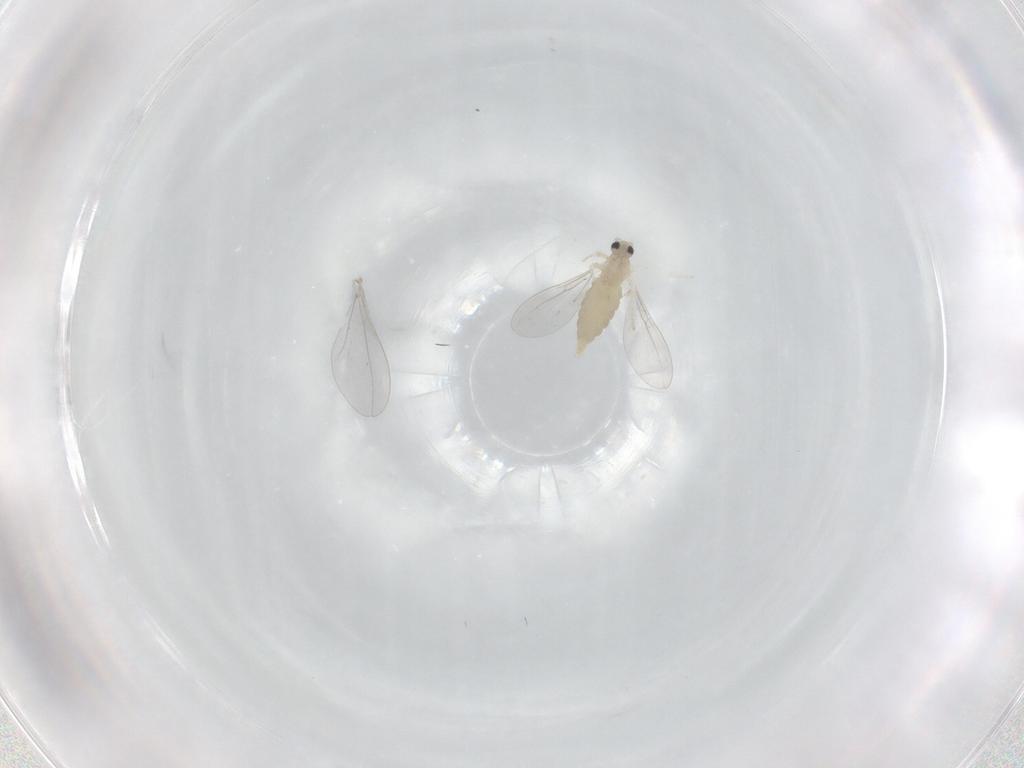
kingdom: Animalia
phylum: Arthropoda
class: Insecta
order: Diptera
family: Cecidomyiidae
